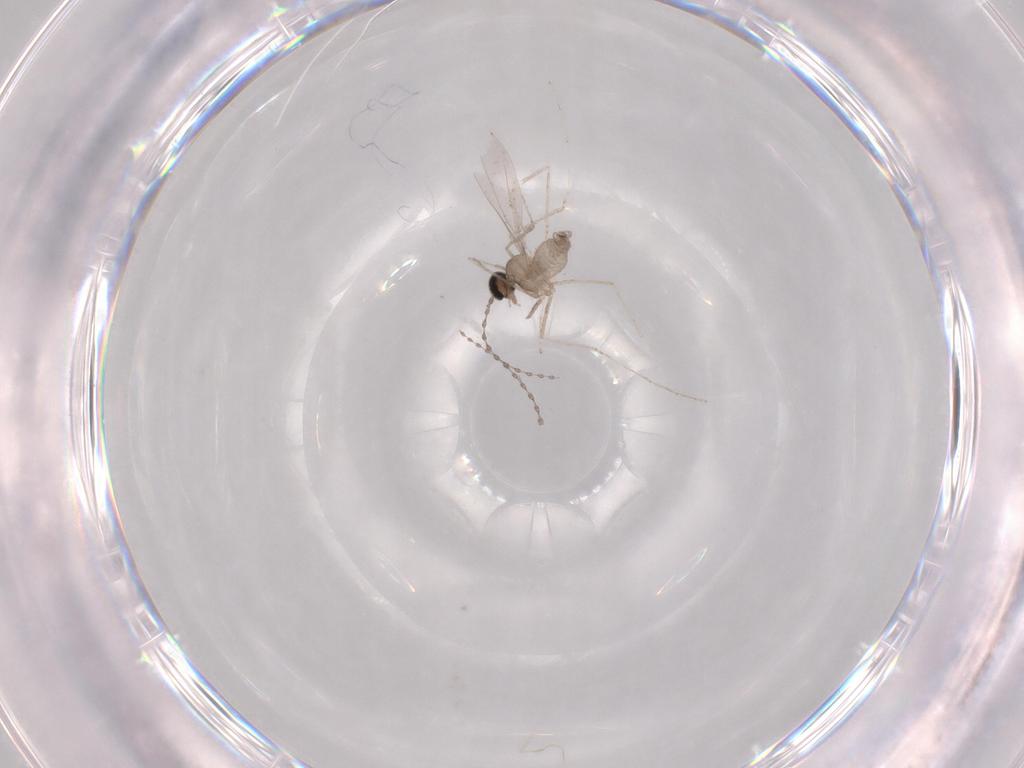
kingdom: Animalia
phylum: Arthropoda
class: Insecta
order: Diptera
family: Cecidomyiidae
